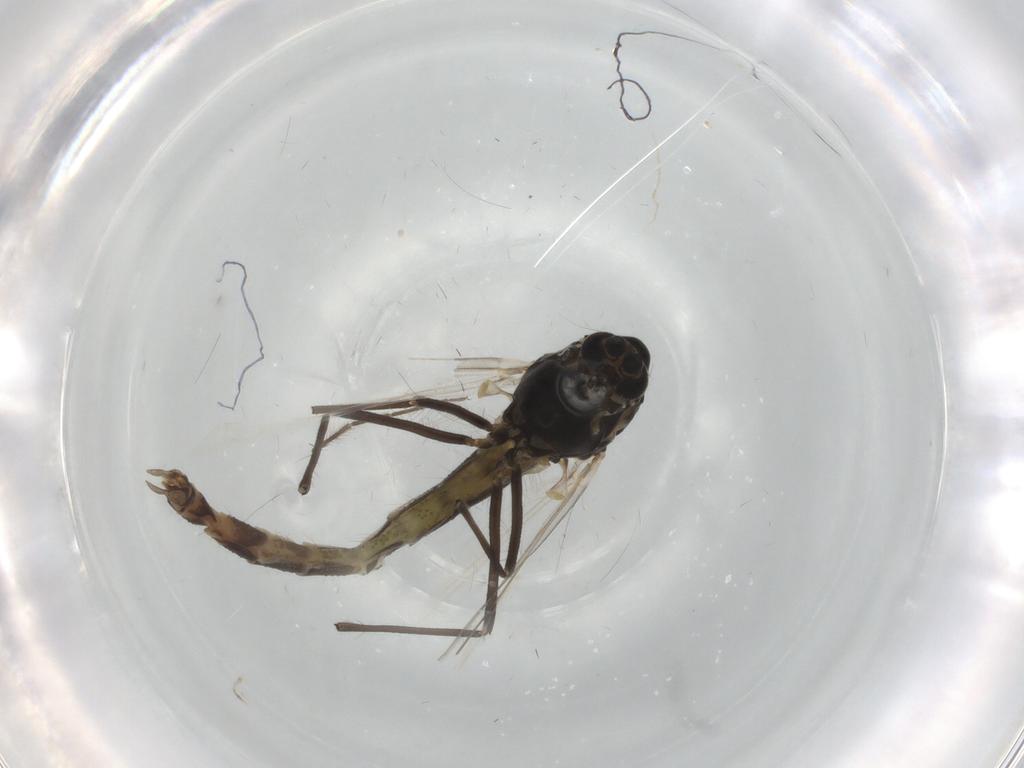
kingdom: Animalia
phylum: Arthropoda
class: Insecta
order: Diptera
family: Chironomidae
